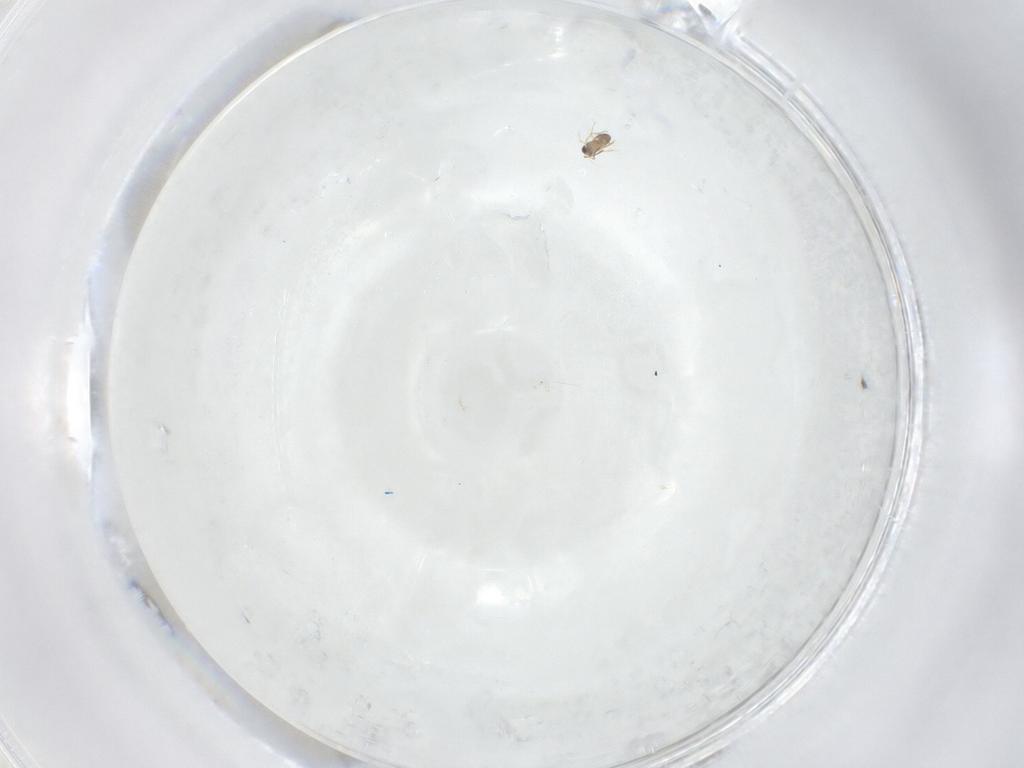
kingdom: Animalia
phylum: Arthropoda
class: Insecta
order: Hymenoptera
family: Mymaridae
